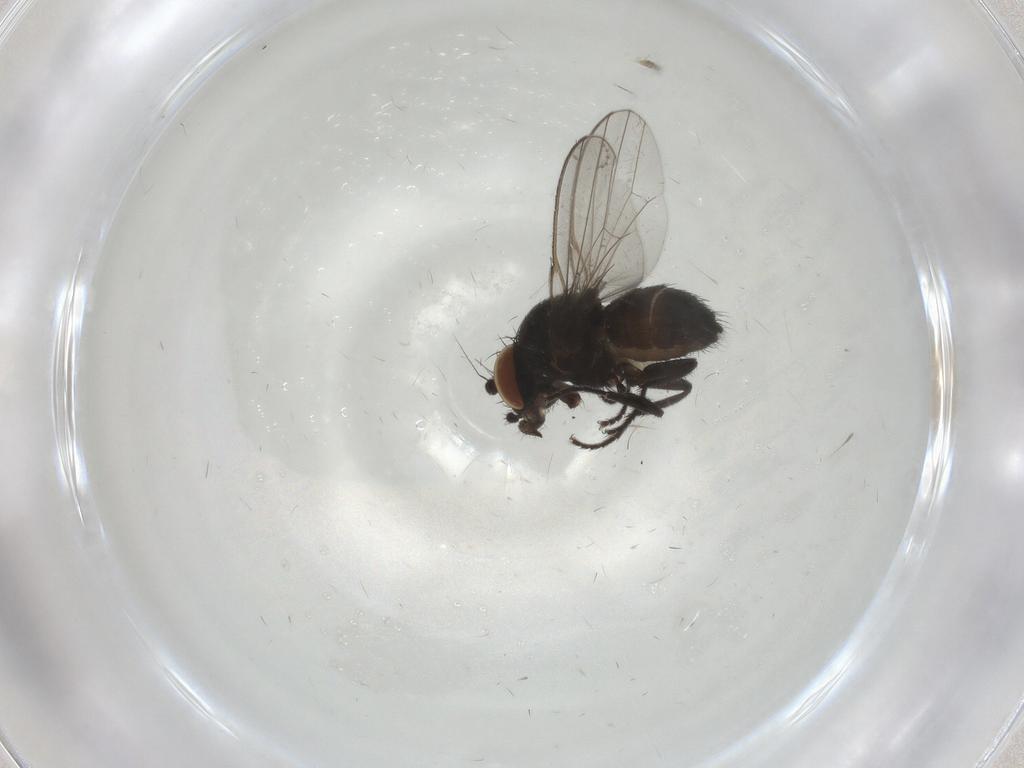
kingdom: Animalia
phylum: Arthropoda
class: Insecta
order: Diptera
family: Milichiidae
